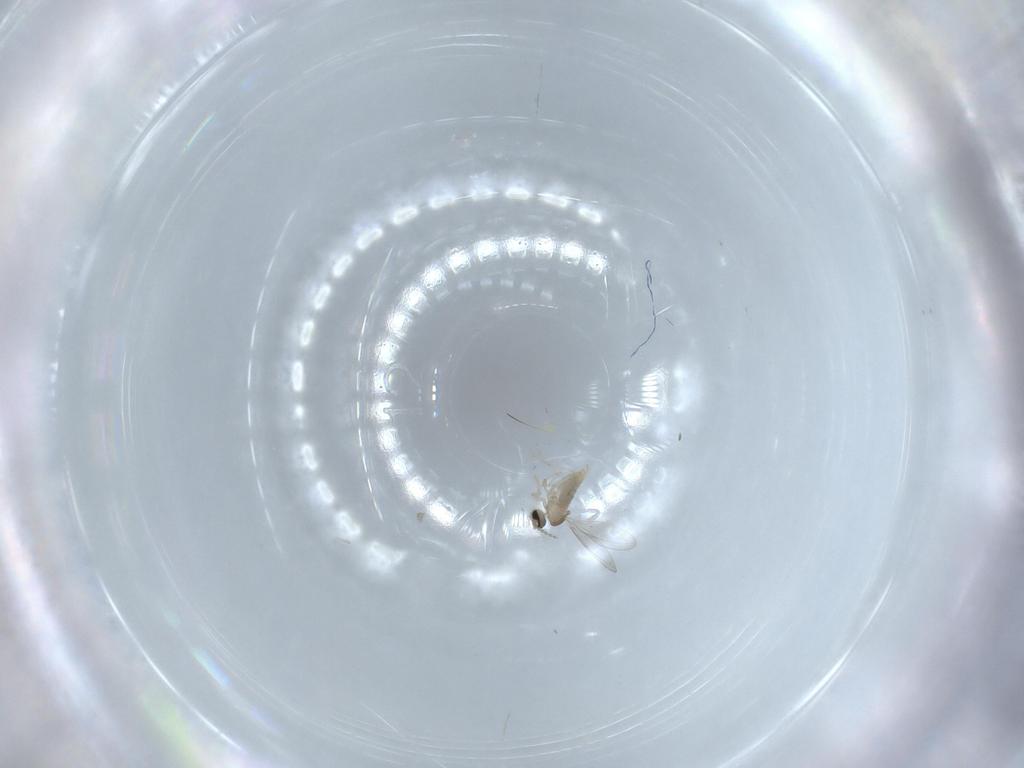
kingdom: Animalia
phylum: Arthropoda
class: Insecta
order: Diptera
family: Cecidomyiidae
